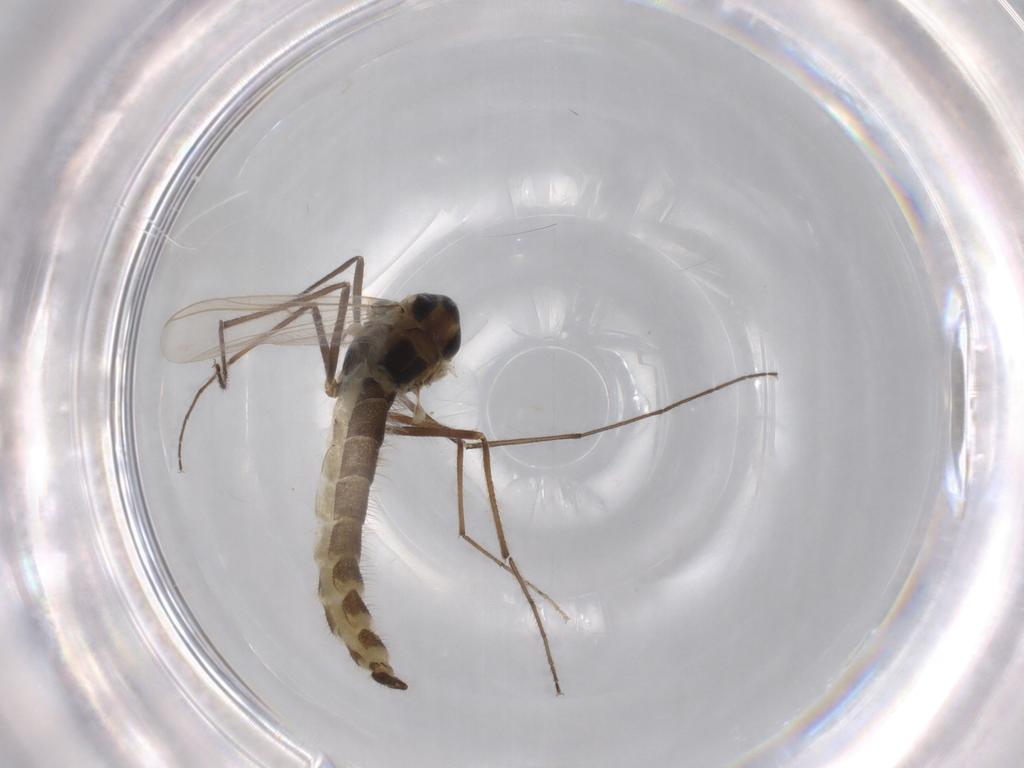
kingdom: Animalia
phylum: Arthropoda
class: Insecta
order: Diptera
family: Sciaridae
